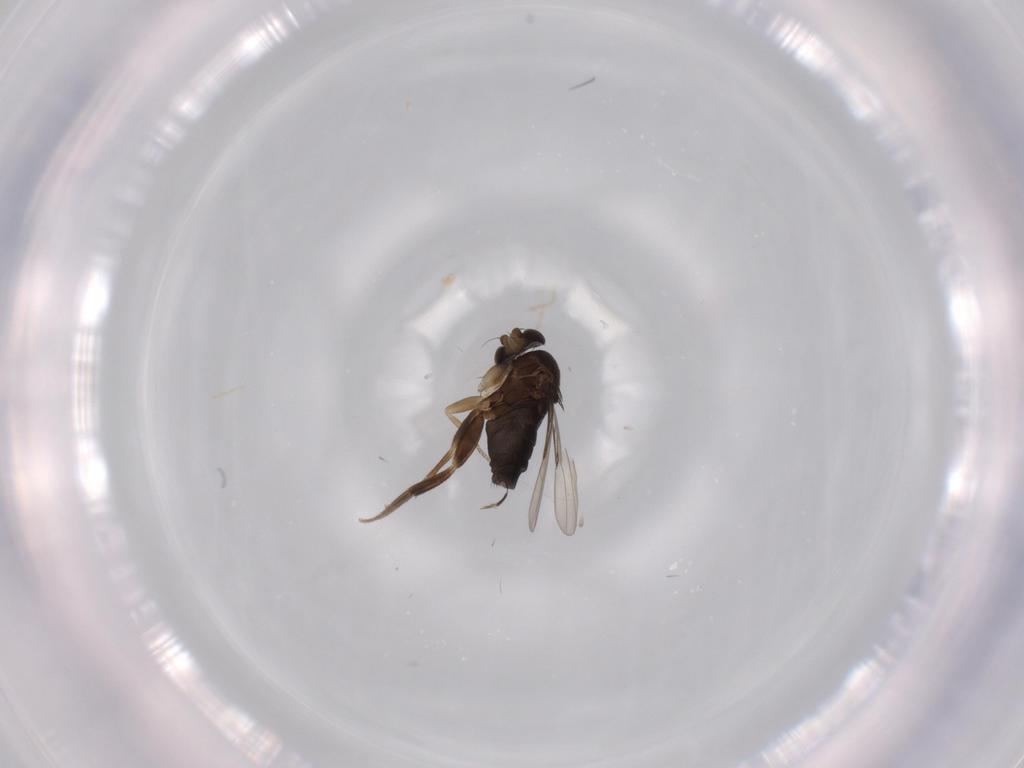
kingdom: Animalia
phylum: Arthropoda
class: Insecta
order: Diptera
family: Phoridae
